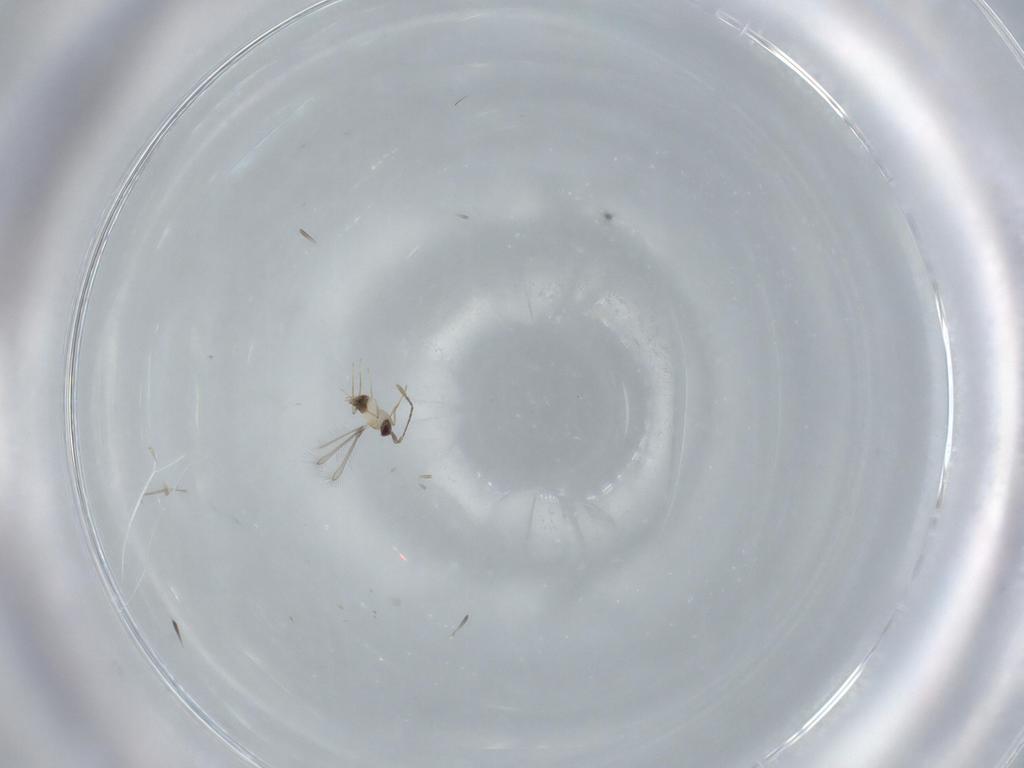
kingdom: Animalia
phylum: Arthropoda
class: Insecta
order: Hymenoptera
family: Mymaridae
